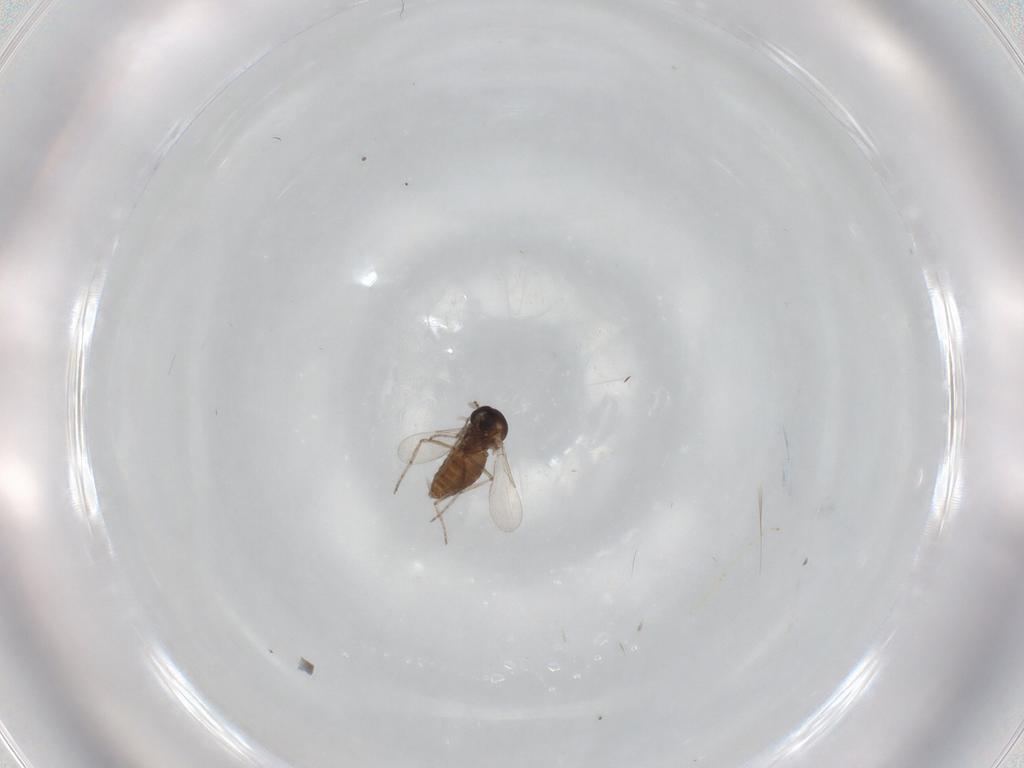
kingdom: Animalia
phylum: Arthropoda
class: Insecta
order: Diptera
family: Ceratopogonidae
